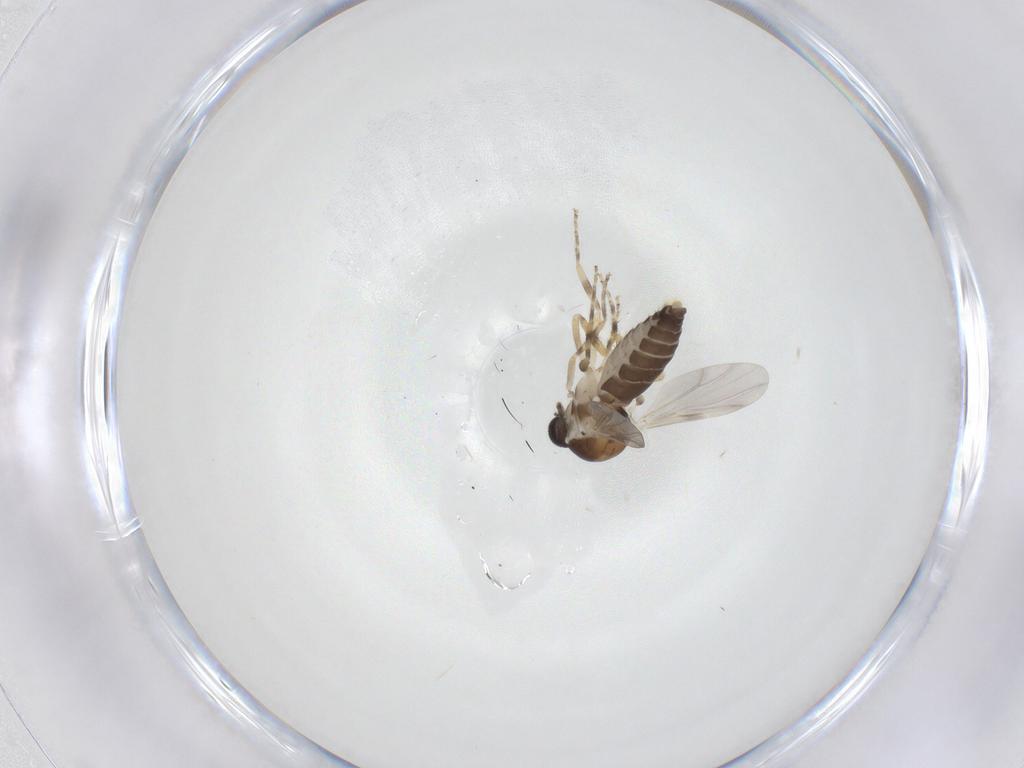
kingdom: Animalia
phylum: Arthropoda
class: Insecta
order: Diptera
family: Ceratopogonidae
